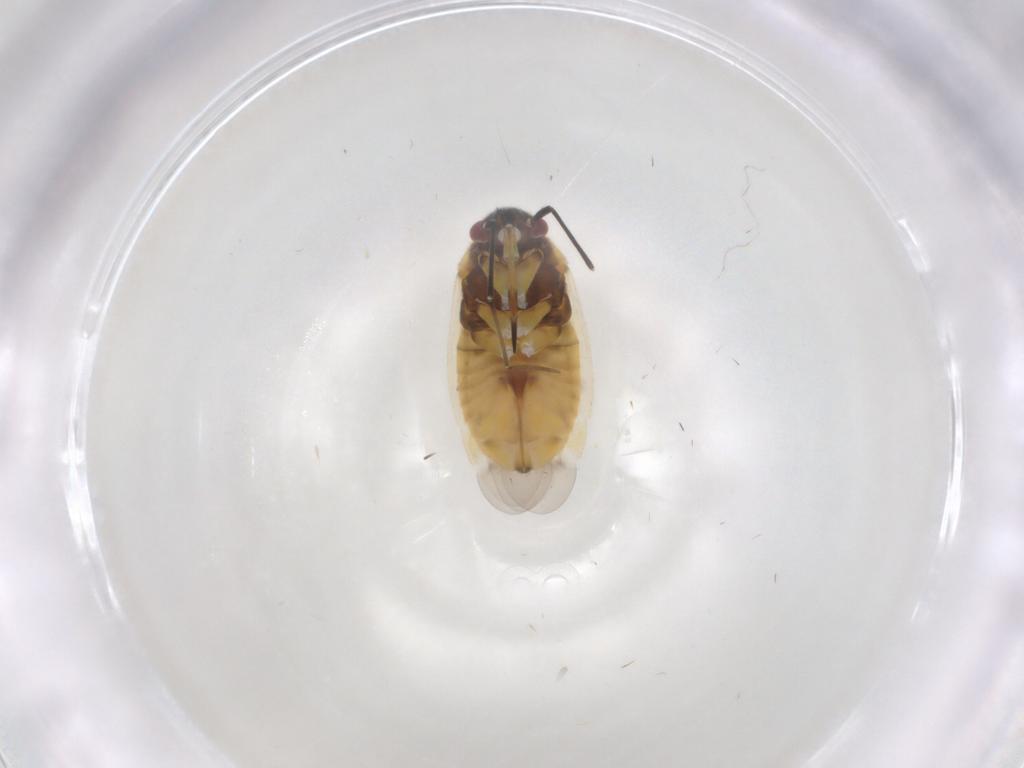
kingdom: Animalia
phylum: Arthropoda
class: Insecta
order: Hemiptera
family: Miridae
